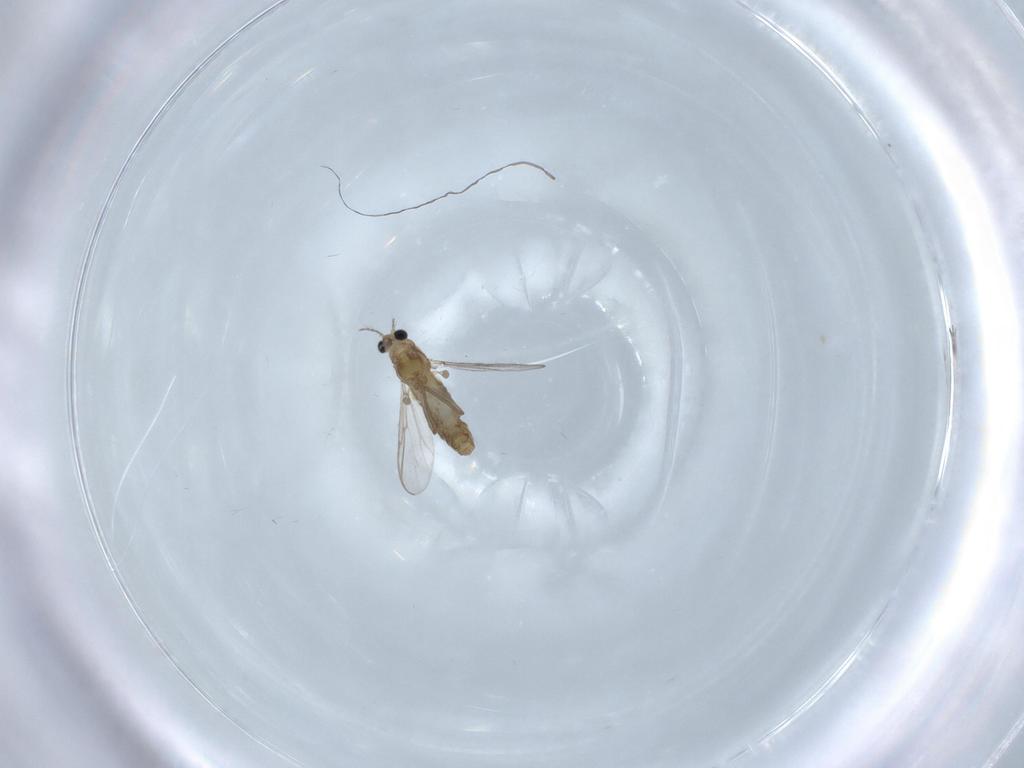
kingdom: Animalia
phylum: Arthropoda
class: Insecta
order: Diptera
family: Chironomidae
